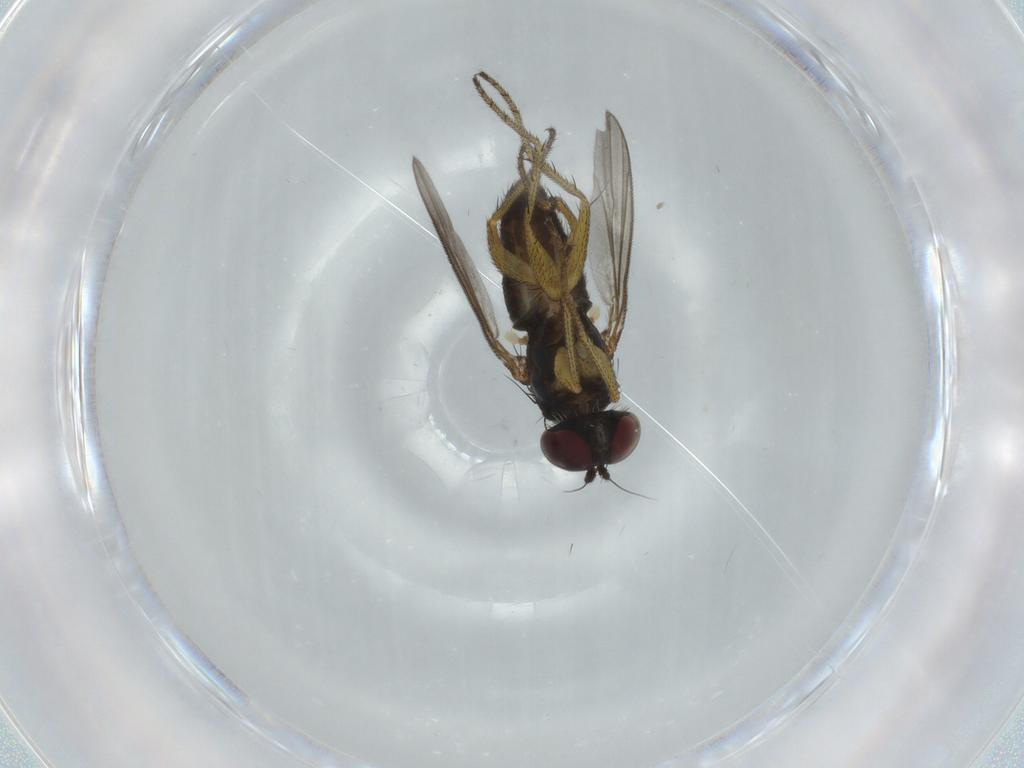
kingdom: Animalia
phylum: Arthropoda
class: Insecta
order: Diptera
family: Dolichopodidae
